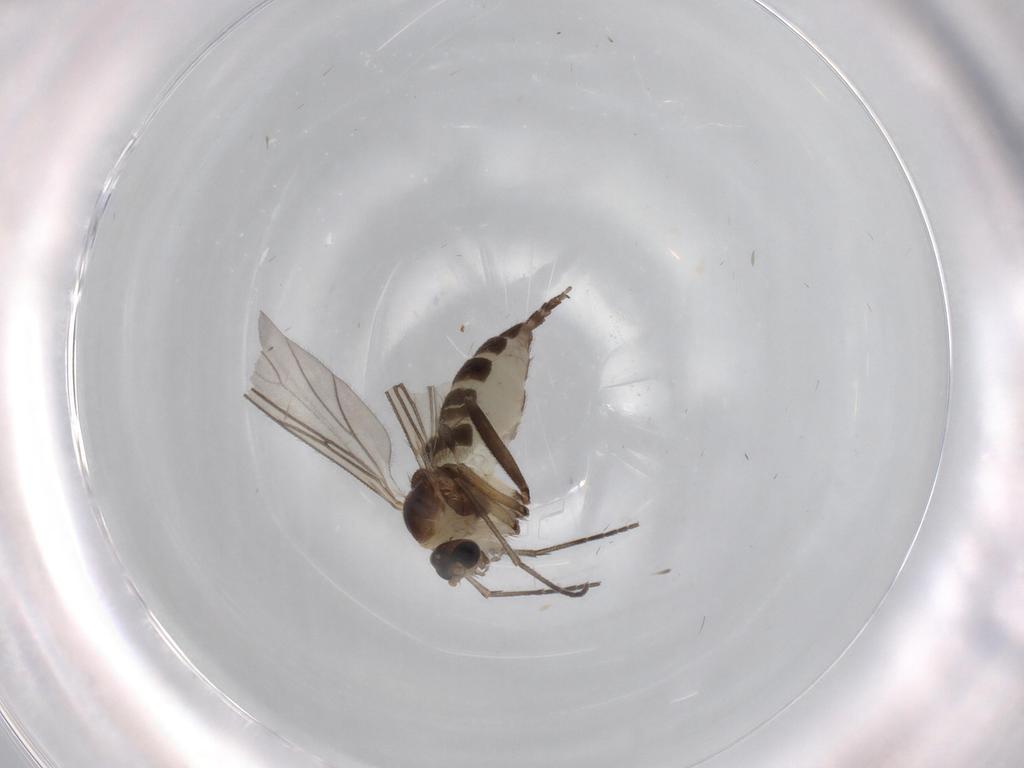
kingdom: Animalia
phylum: Arthropoda
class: Insecta
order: Diptera
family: Sciaridae
